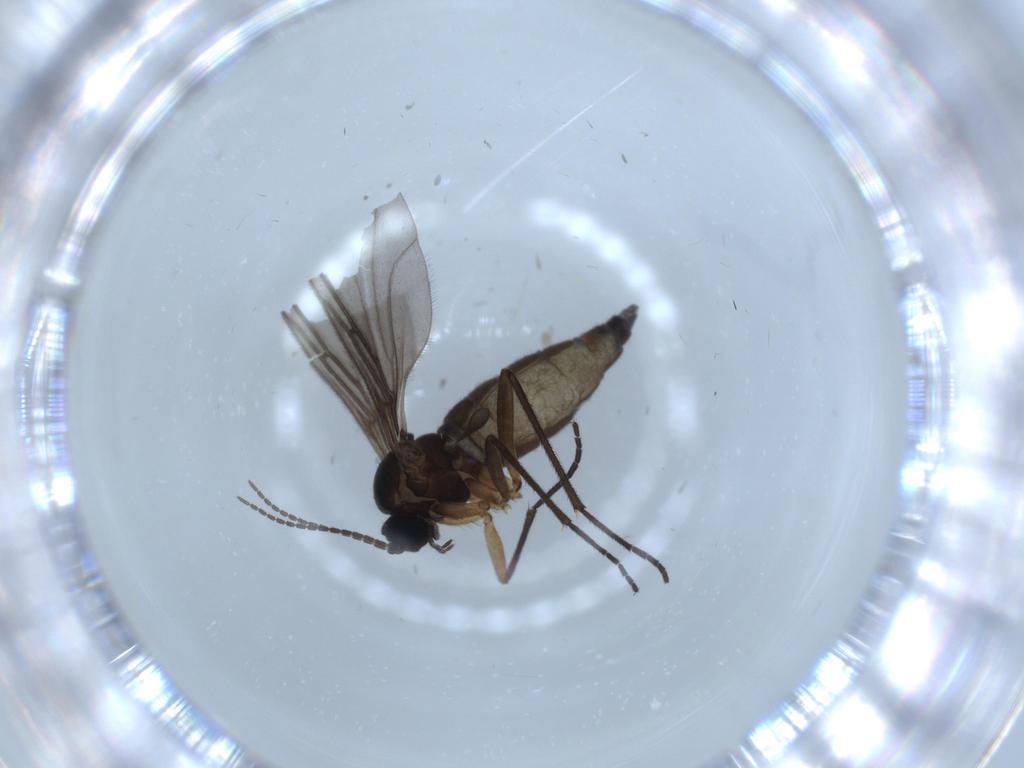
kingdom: Animalia
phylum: Arthropoda
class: Insecta
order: Diptera
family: Sciaridae
